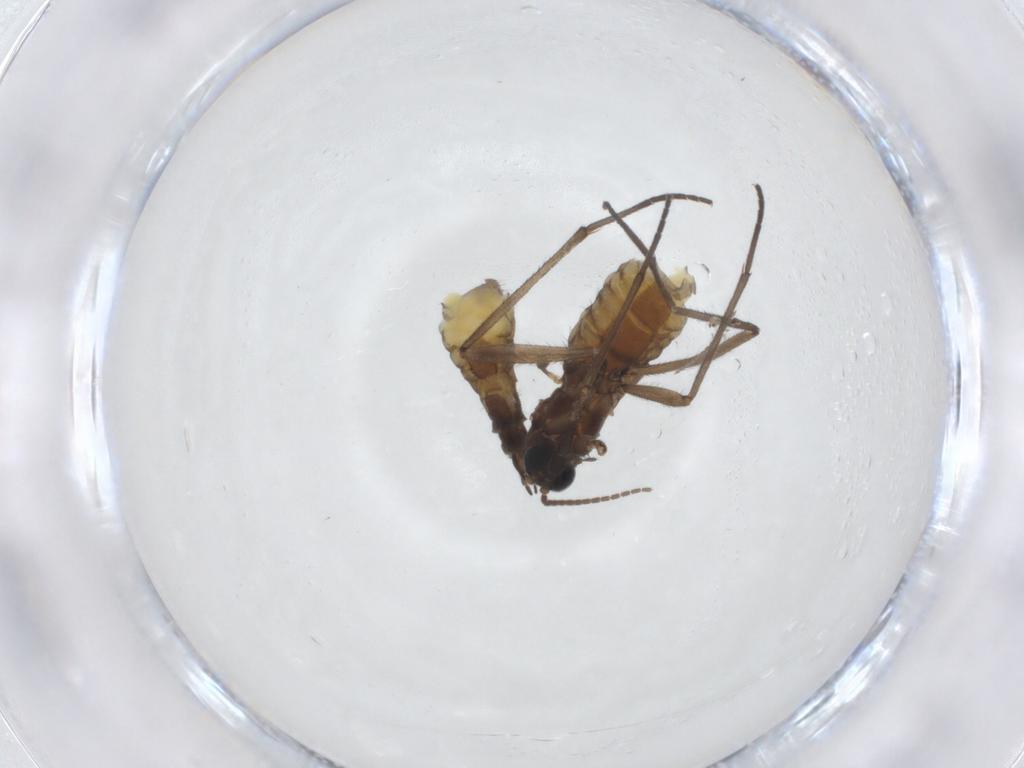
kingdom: Animalia
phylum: Arthropoda
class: Insecta
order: Diptera
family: Sciaridae
